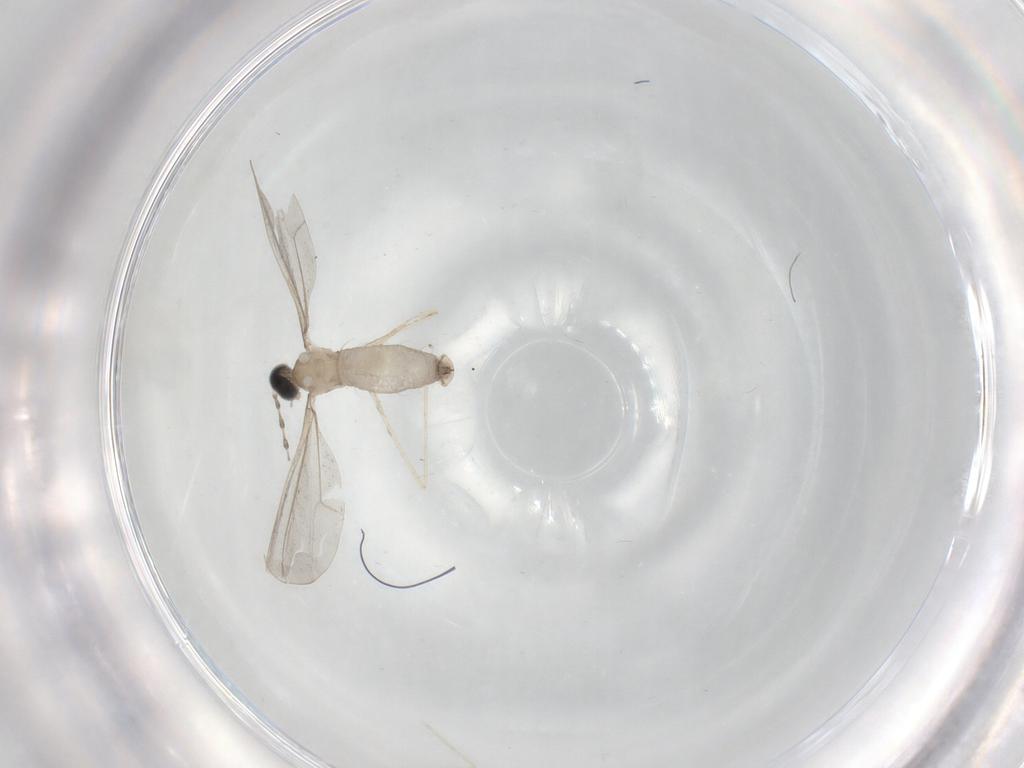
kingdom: Animalia
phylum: Arthropoda
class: Insecta
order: Diptera
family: Cecidomyiidae
